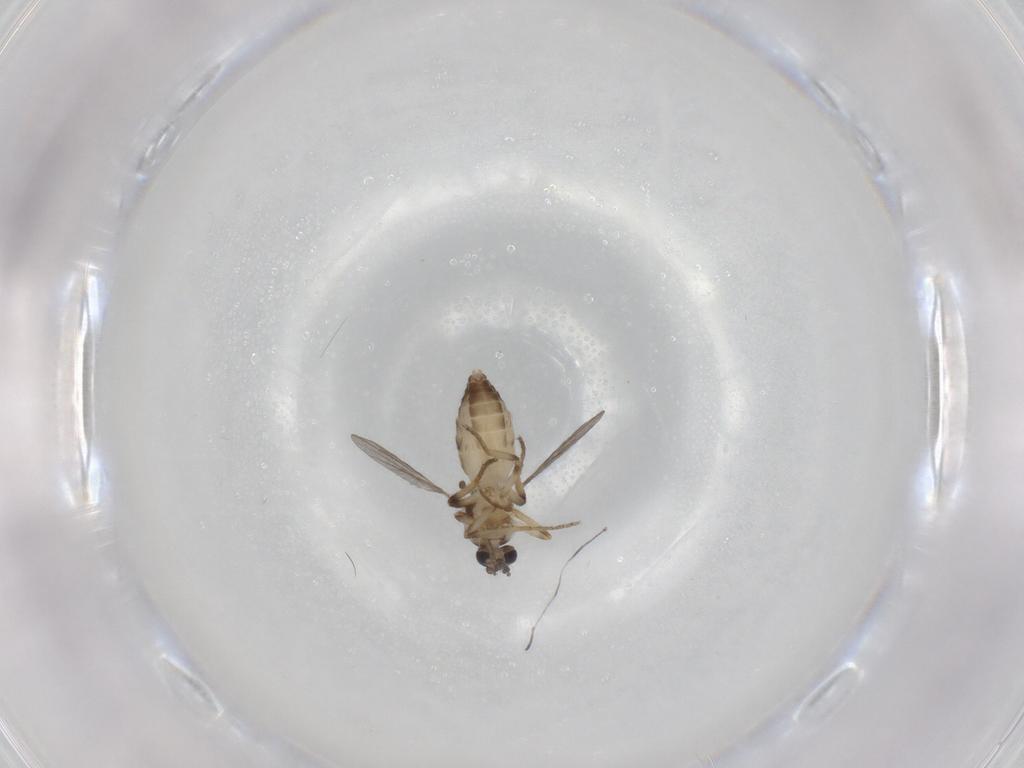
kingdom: Animalia
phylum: Arthropoda
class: Insecta
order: Diptera
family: Ceratopogonidae
